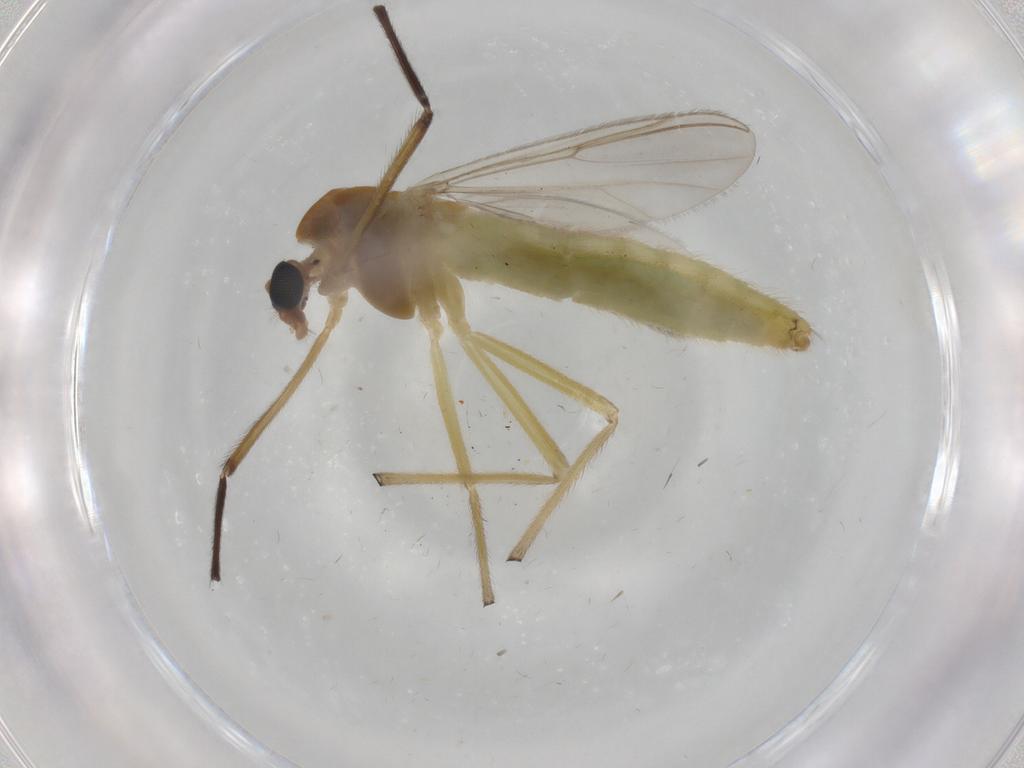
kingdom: Animalia
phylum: Arthropoda
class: Insecta
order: Diptera
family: Chironomidae
